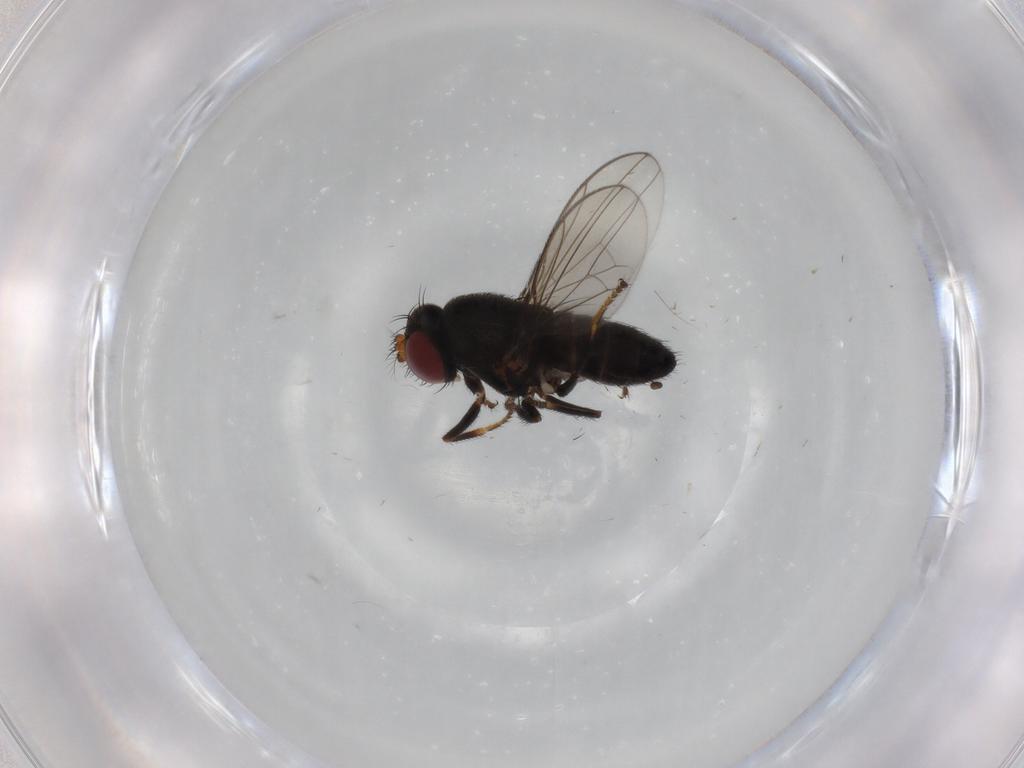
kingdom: Animalia
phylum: Arthropoda
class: Insecta
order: Diptera
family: Ephydridae
